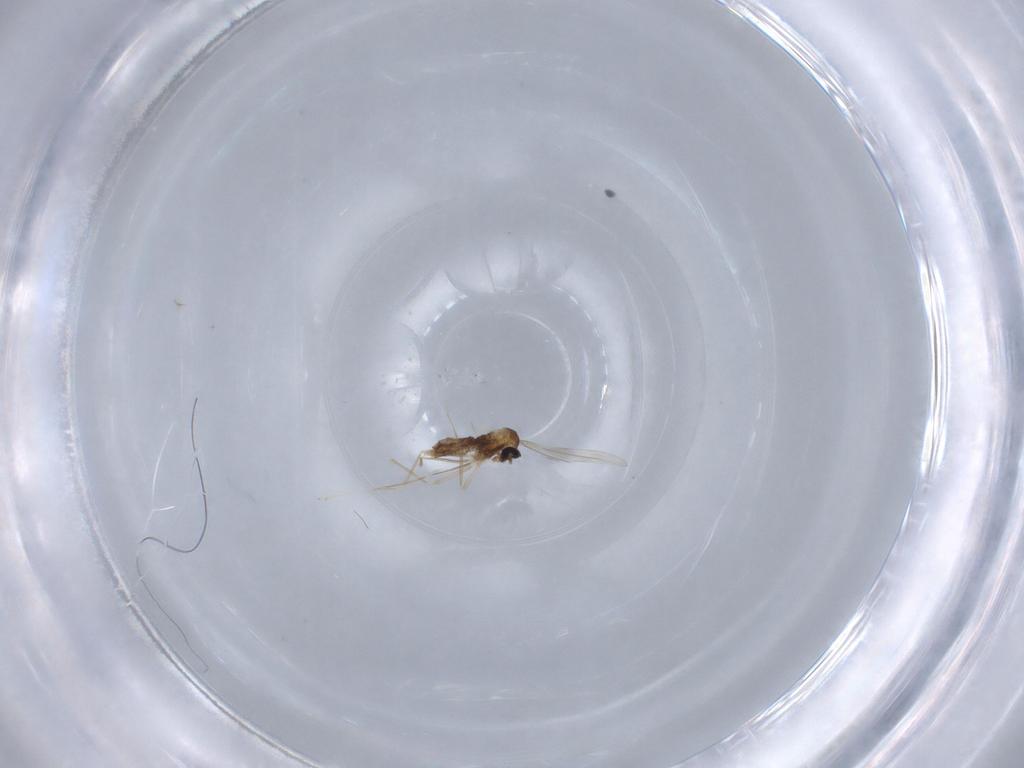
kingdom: Animalia
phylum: Arthropoda
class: Insecta
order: Diptera
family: Cecidomyiidae
